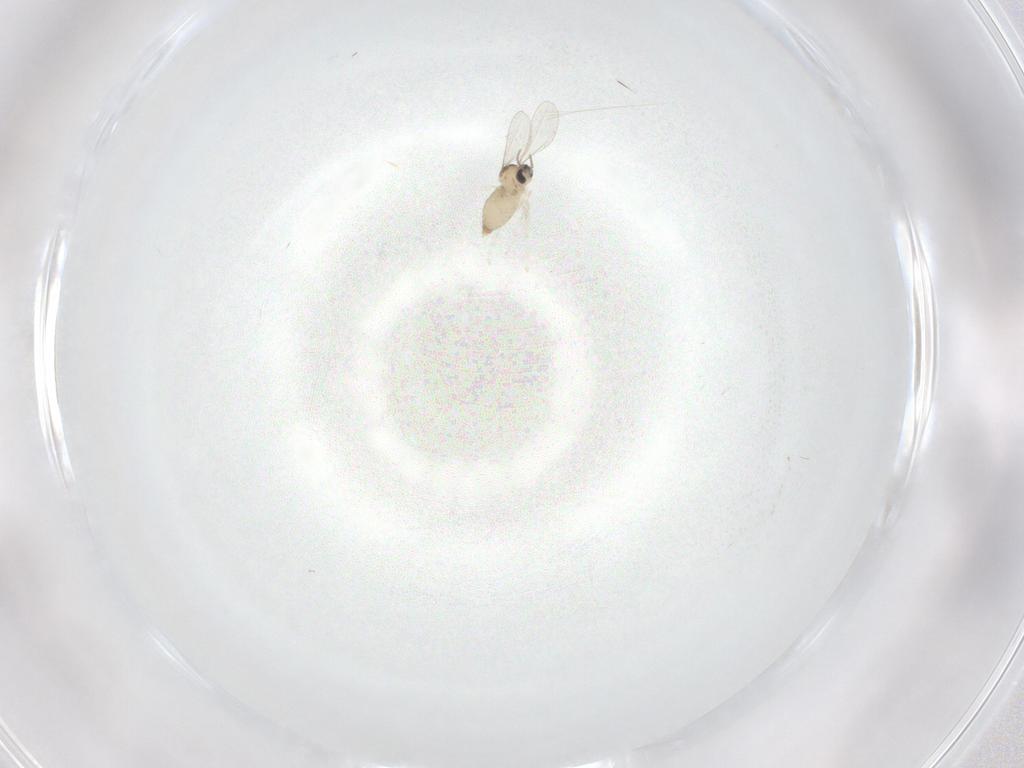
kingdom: Animalia
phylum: Arthropoda
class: Insecta
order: Diptera
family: Cecidomyiidae
